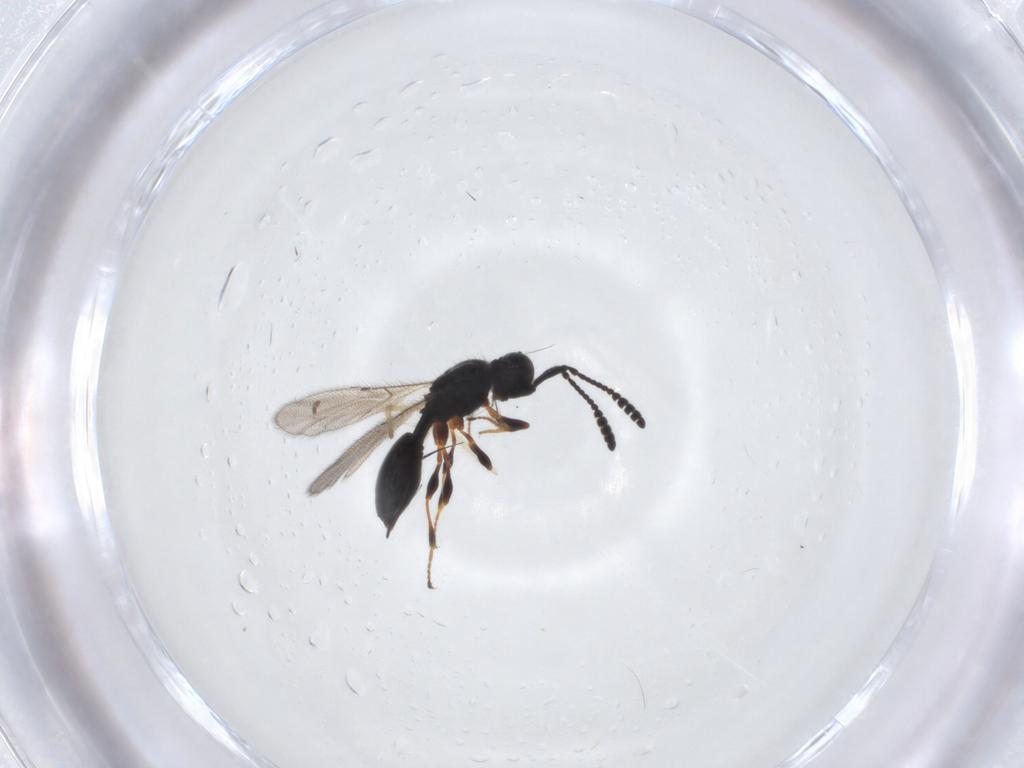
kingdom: Animalia
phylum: Arthropoda
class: Insecta
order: Hymenoptera
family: Diapriidae
